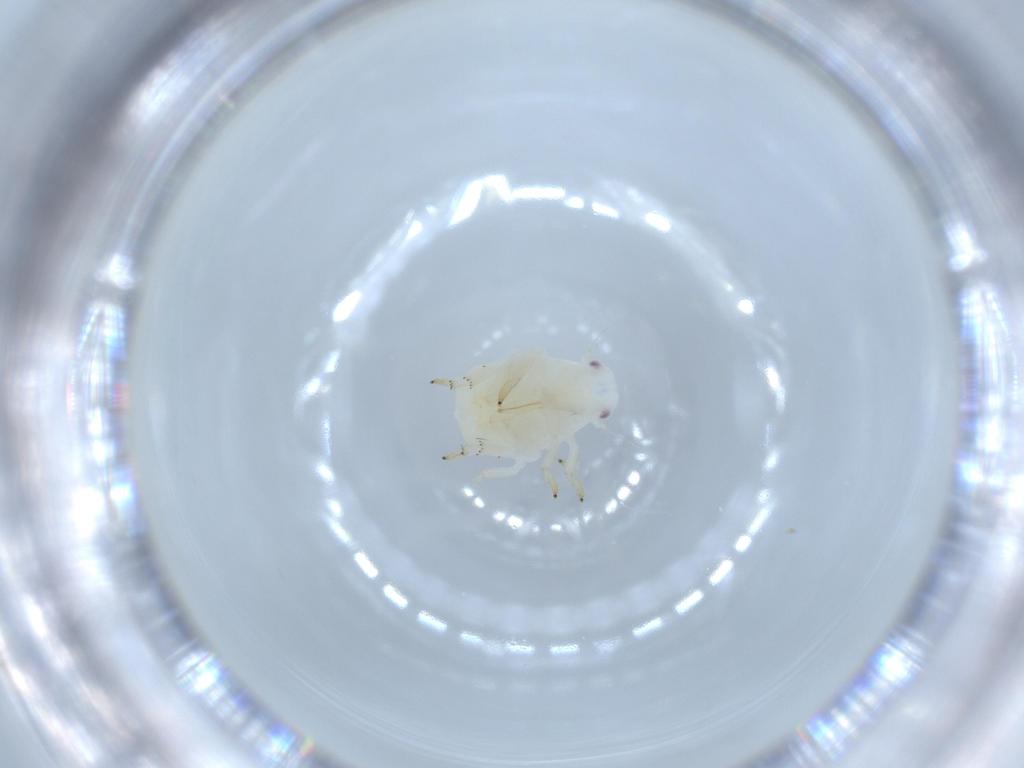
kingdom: Animalia
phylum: Arthropoda
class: Insecta
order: Hemiptera
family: Flatidae
